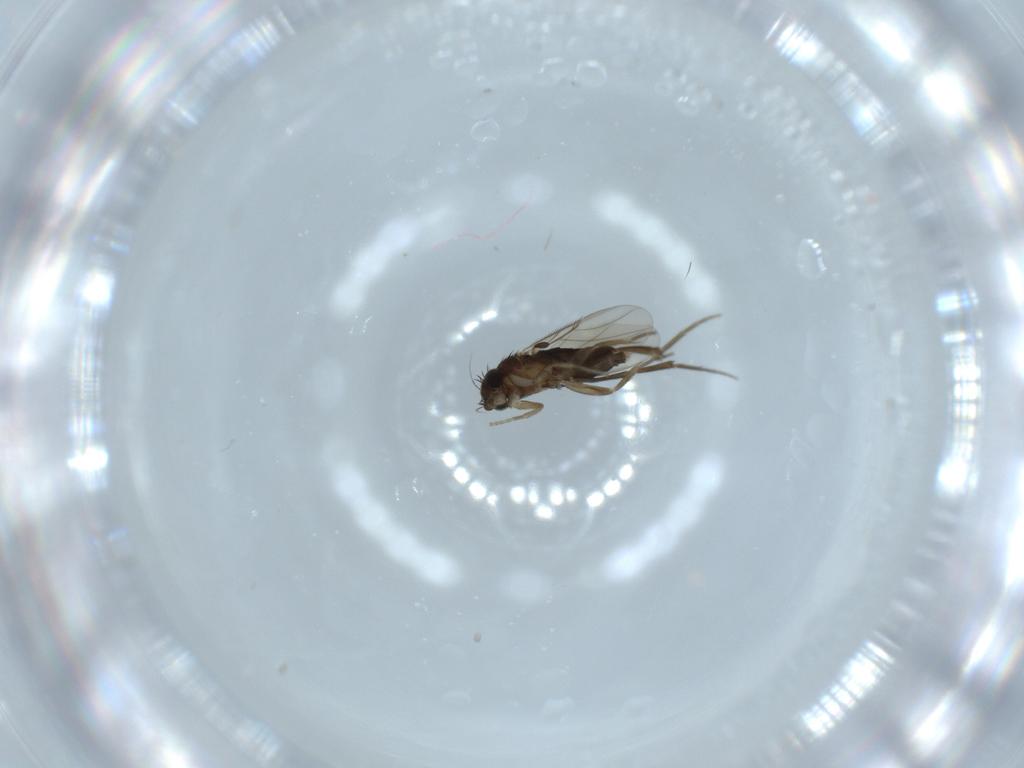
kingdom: Animalia
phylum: Arthropoda
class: Insecta
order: Diptera
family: Phoridae
